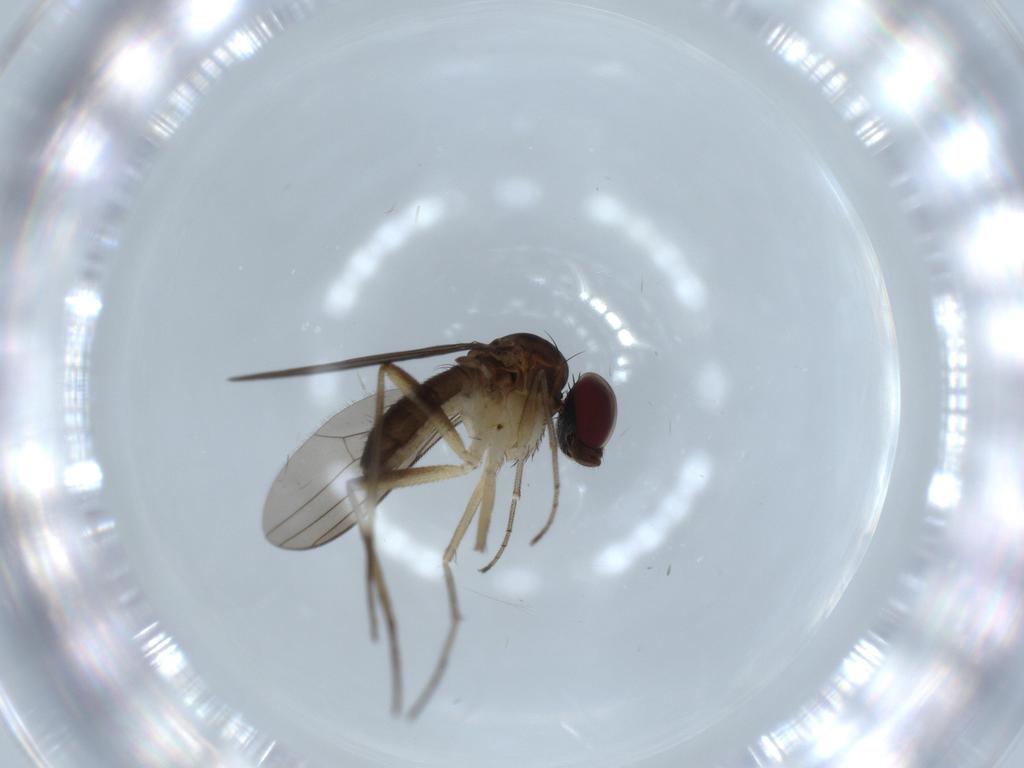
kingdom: Animalia
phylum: Arthropoda
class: Insecta
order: Diptera
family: Dolichopodidae
